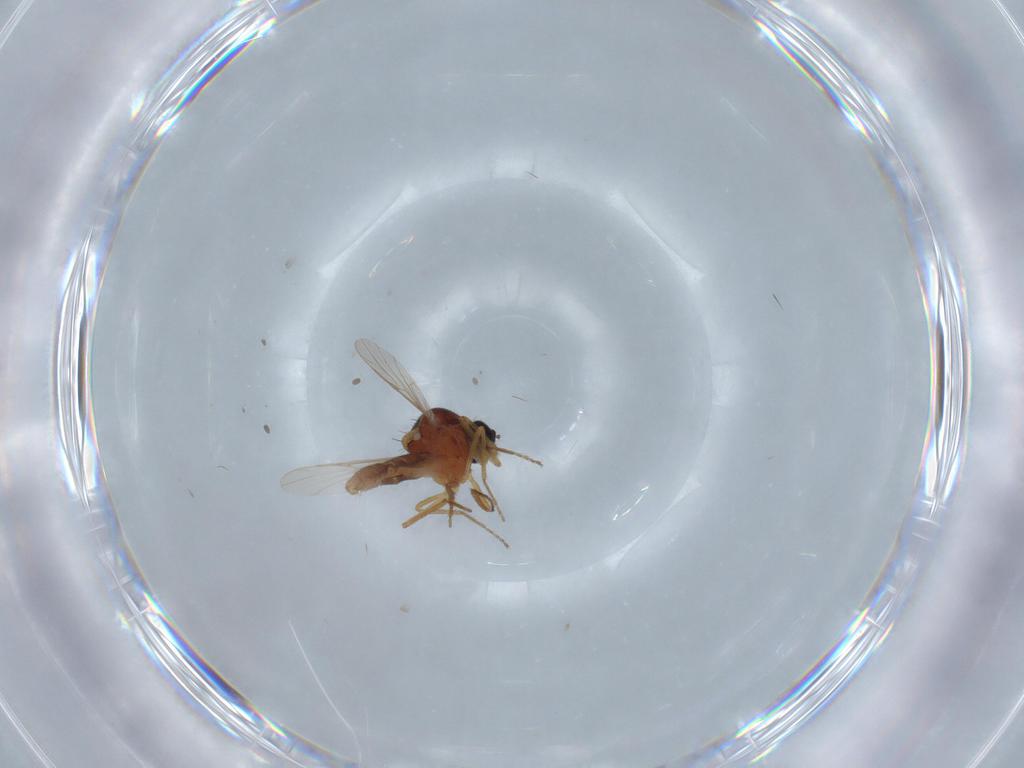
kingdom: Animalia
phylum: Arthropoda
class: Insecta
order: Diptera
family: Ceratopogonidae
